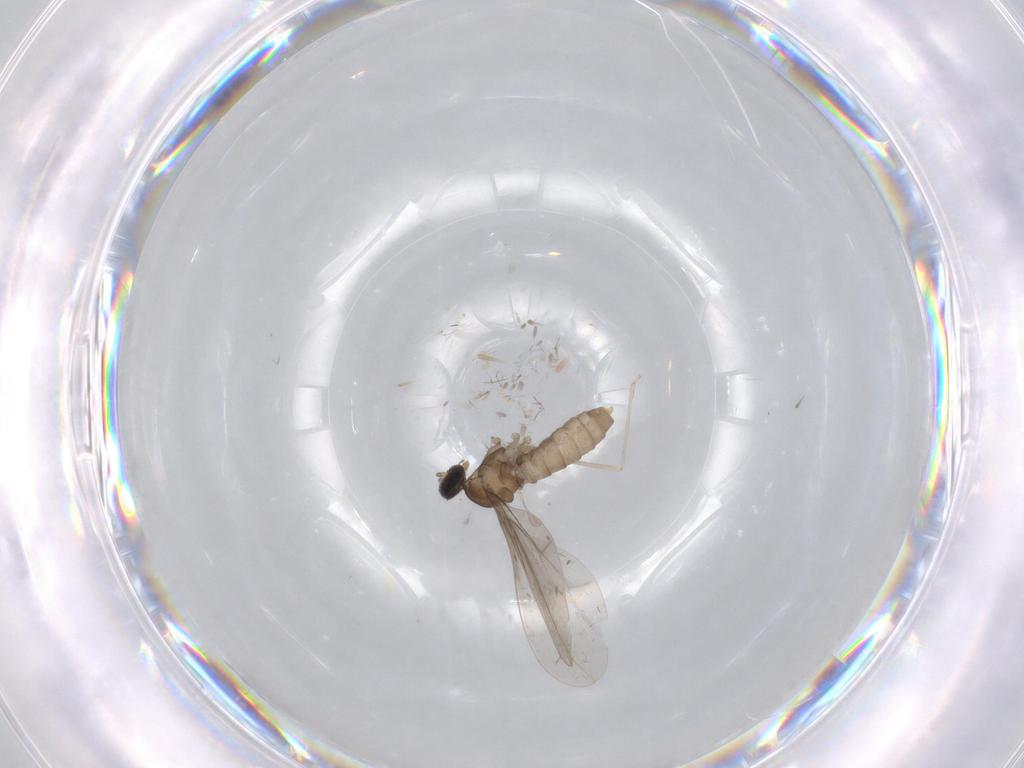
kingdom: Animalia
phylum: Arthropoda
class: Insecta
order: Diptera
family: Cecidomyiidae
